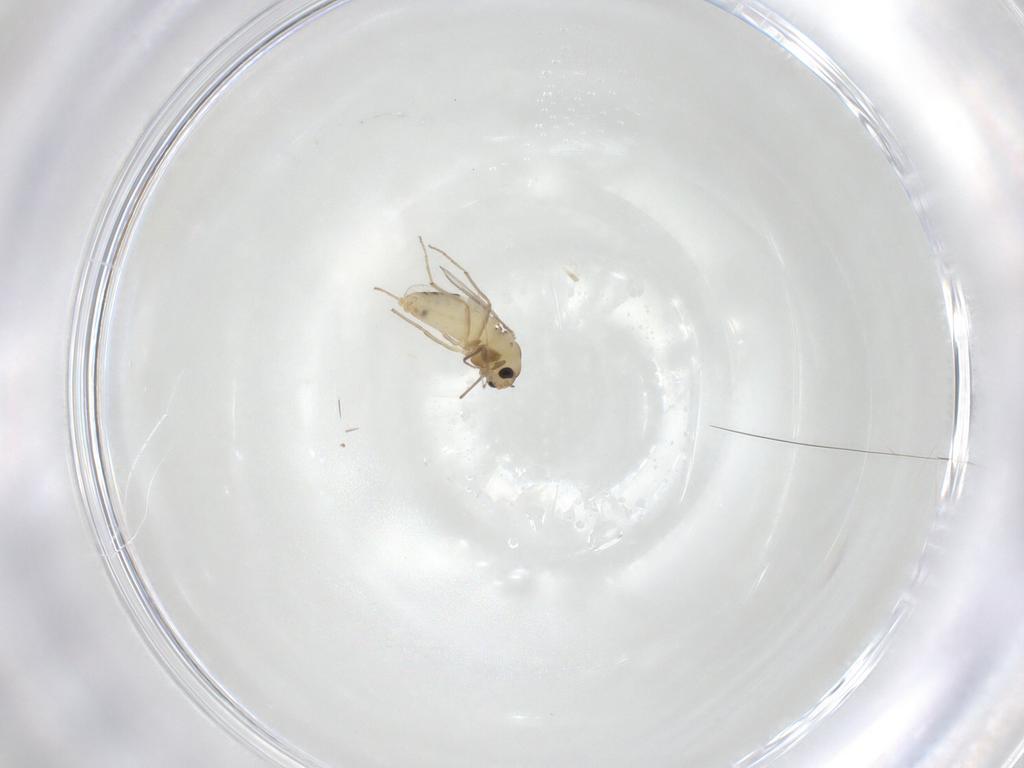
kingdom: Animalia
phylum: Arthropoda
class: Insecta
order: Diptera
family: Chironomidae
